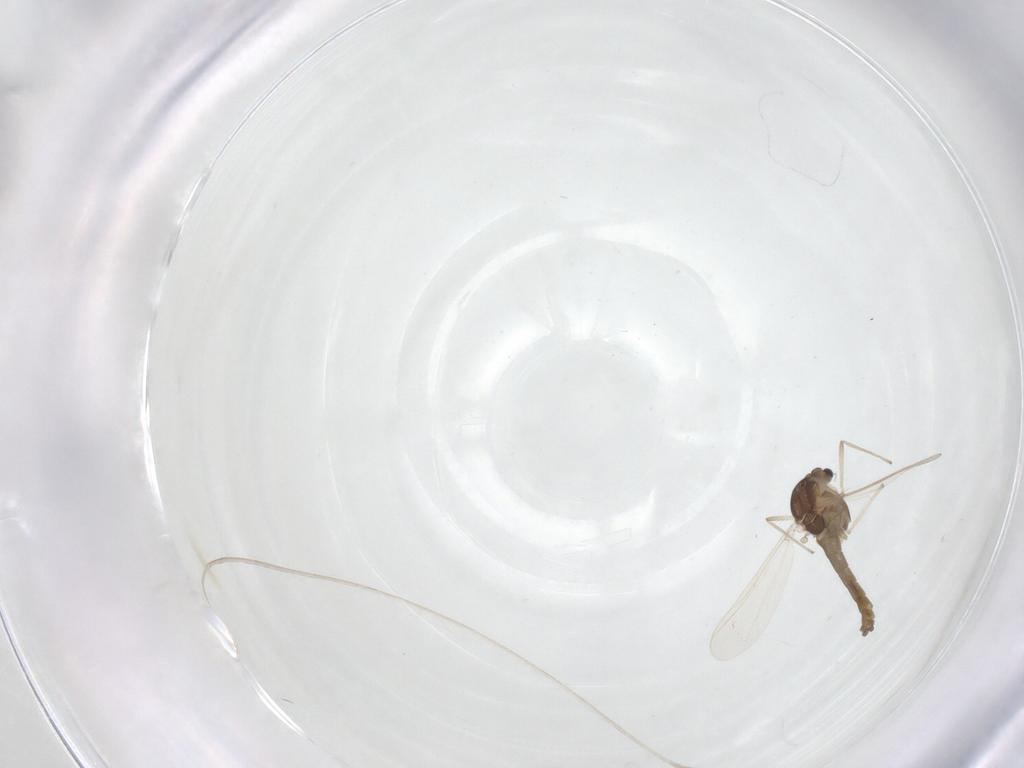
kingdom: Animalia
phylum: Arthropoda
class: Insecta
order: Diptera
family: Chironomidae
